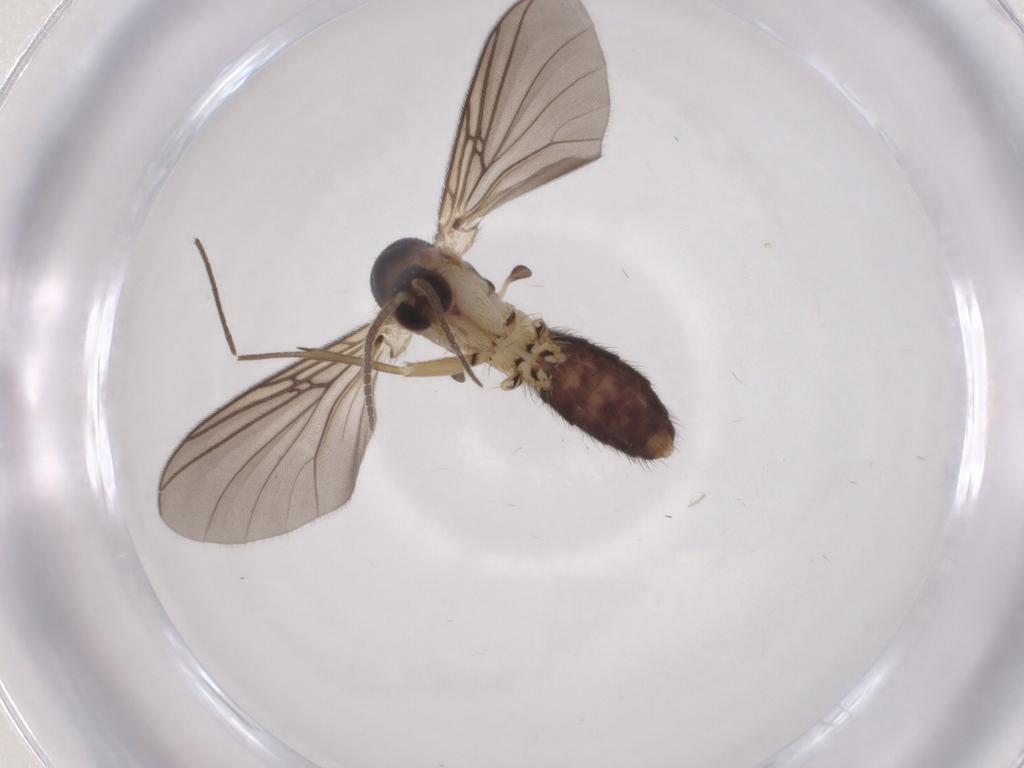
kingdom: Animalia
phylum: Arthropoda
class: Insecta
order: Diptera
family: Mycetophilidae
